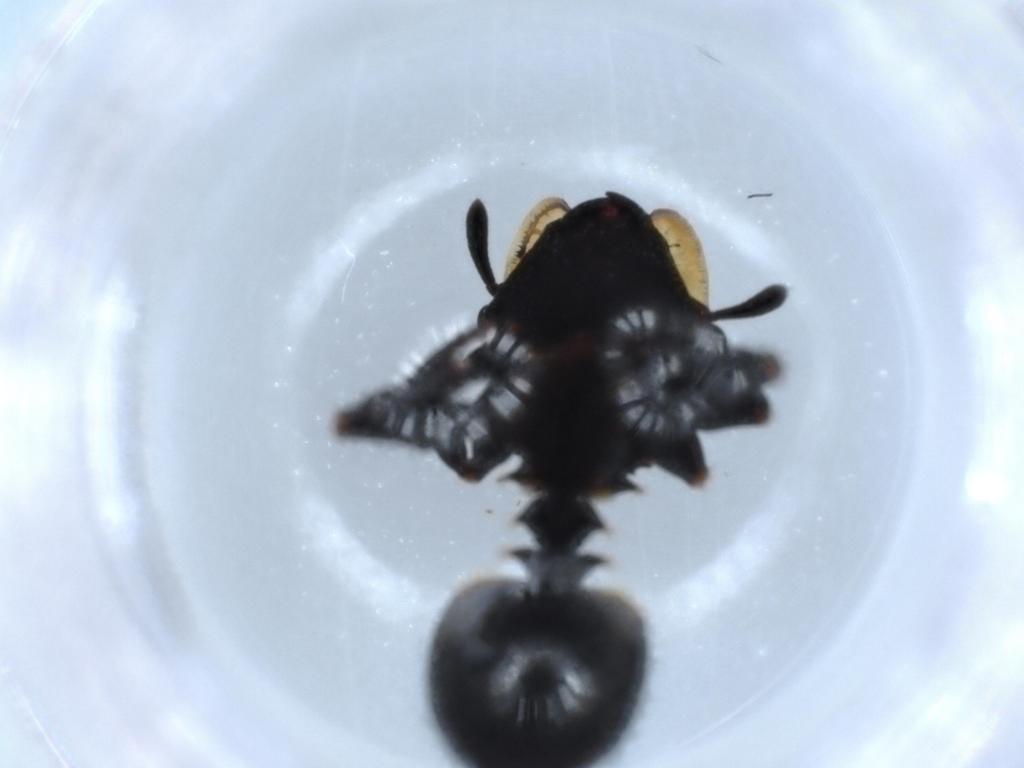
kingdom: Animalia
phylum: Arthropoda
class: Insecta
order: Hymenoptera
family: Formicidae
